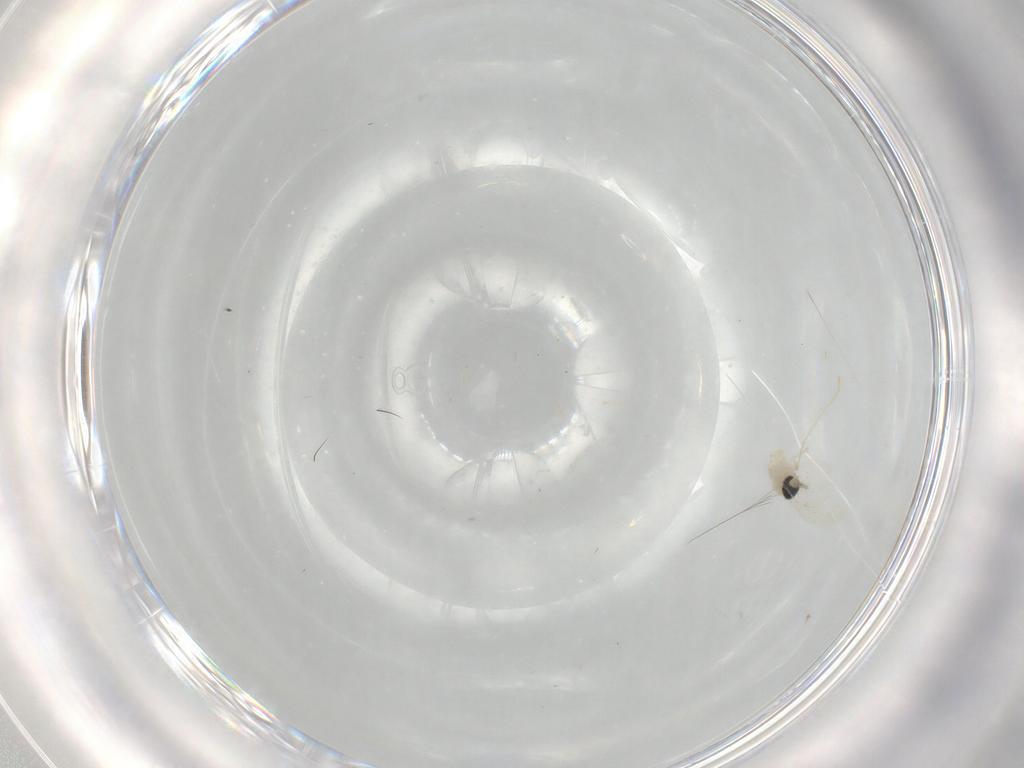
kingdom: Animalia
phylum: Arthropoda
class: Insecta
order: Diptera
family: Cecidomyiidae
